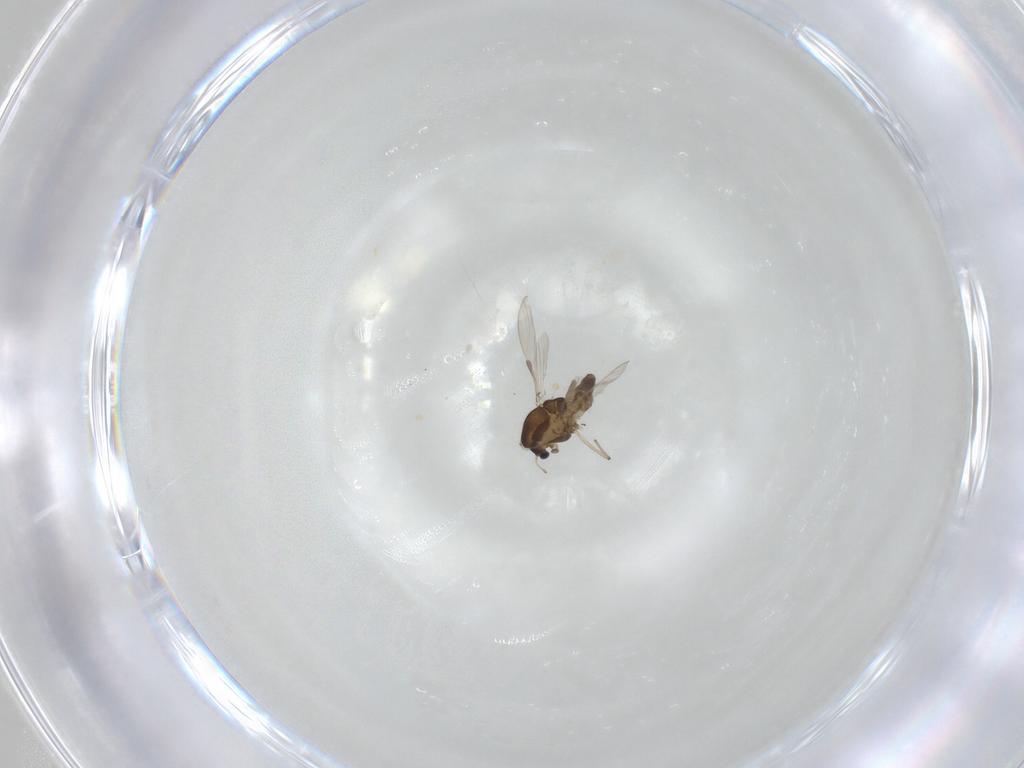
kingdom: Animalia
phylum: Arthropoda
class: Insecta
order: Diptera
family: Chironomidae
